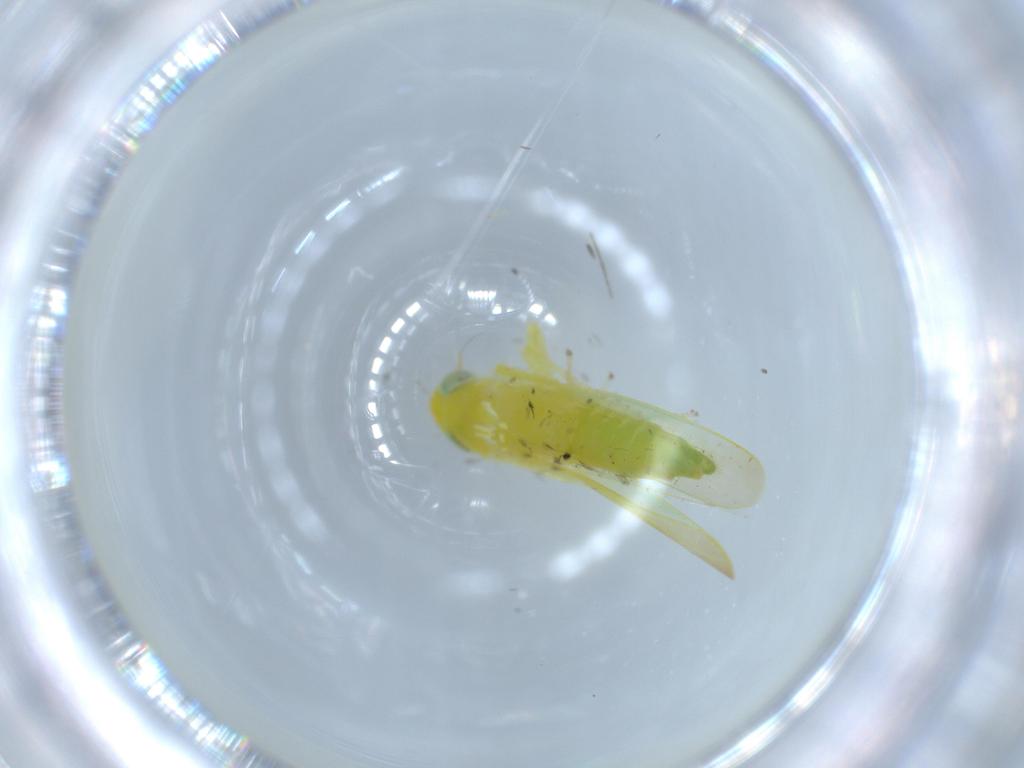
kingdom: Animalia
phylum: Arthropoda
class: Insecta
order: Hemiptera
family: Cicadellidae
